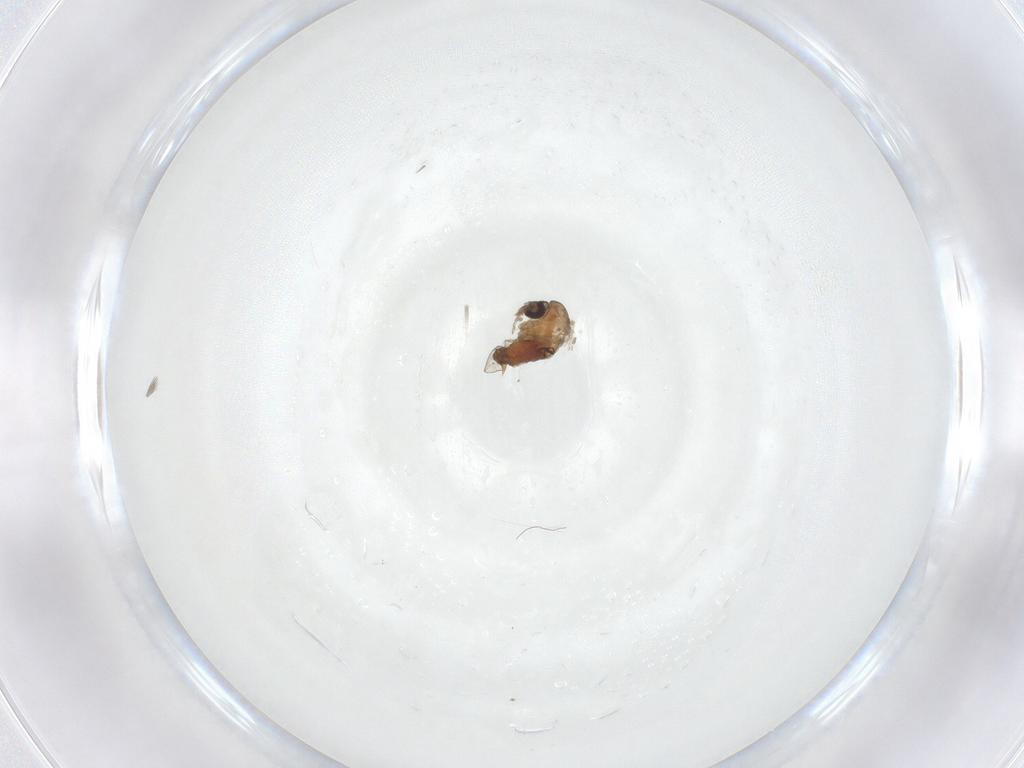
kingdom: Animalia
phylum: Arthropoda
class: Insecta
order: Diptera
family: Psychodidae
